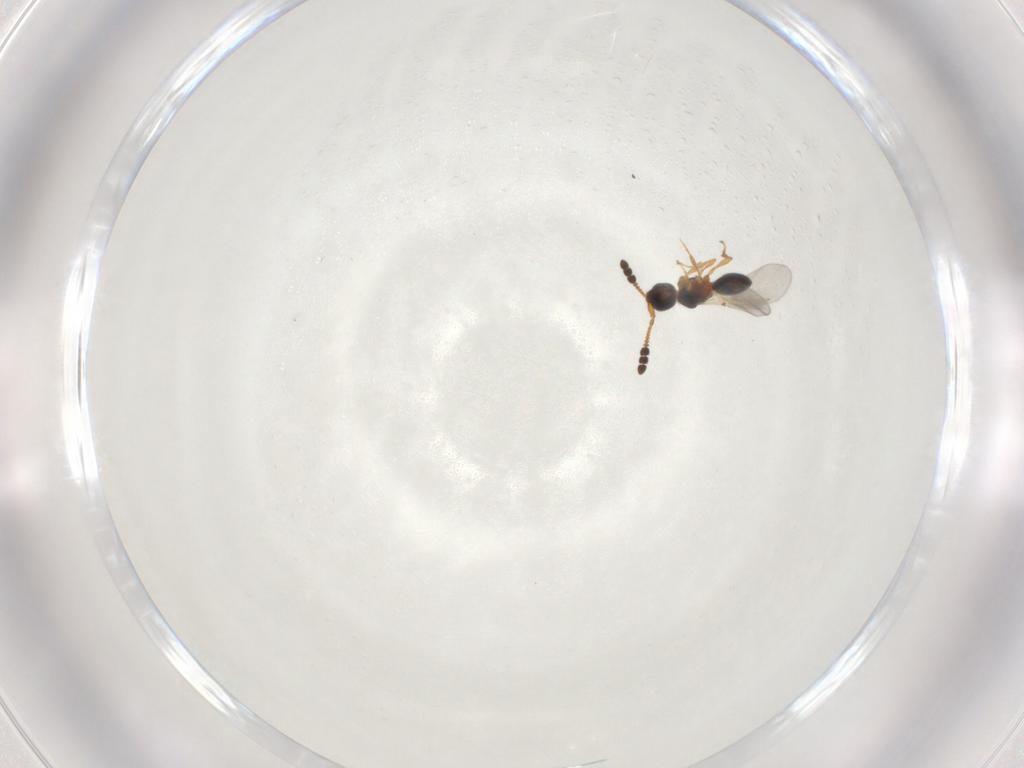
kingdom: Animalia
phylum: Arthropoda
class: Insecta
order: Hymenoptera
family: Diapriidae
